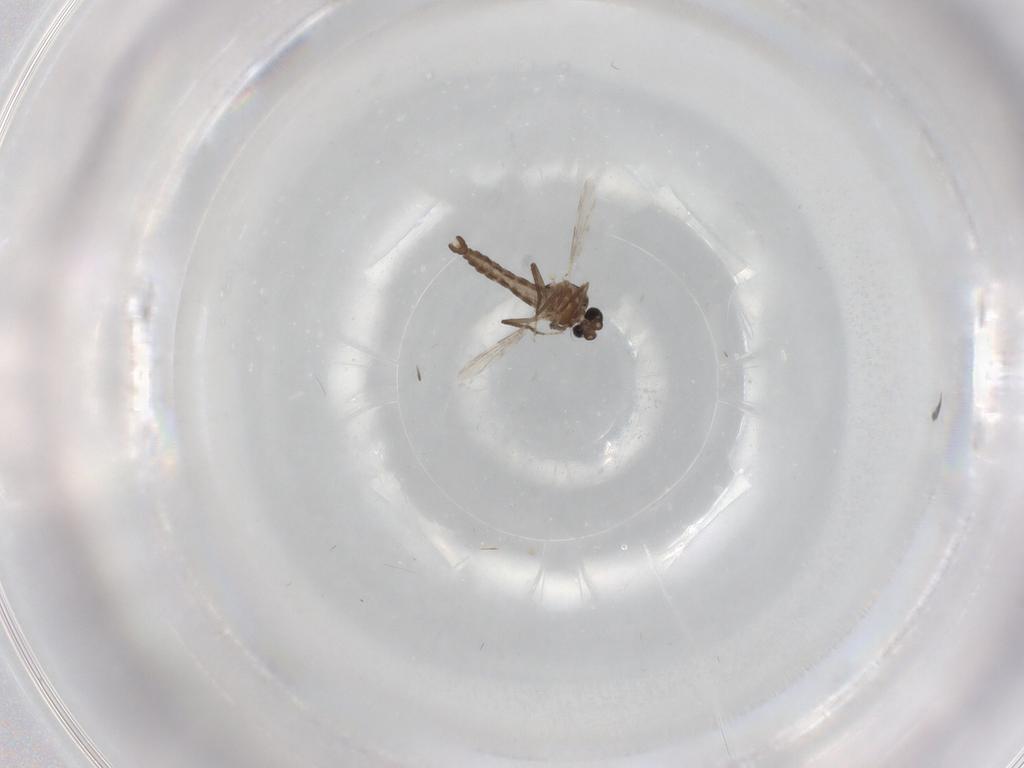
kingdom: Animalia
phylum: Arthropoda
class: Insecta
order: Diptera
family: Ceratopogonidae
